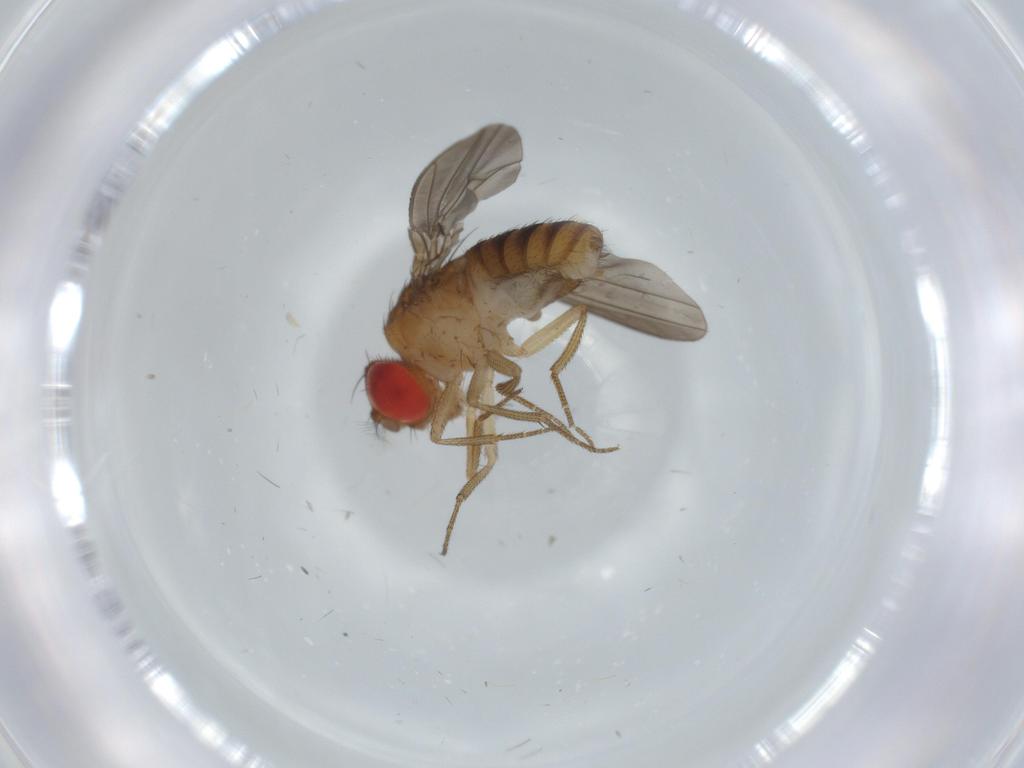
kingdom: Animalia
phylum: Arthropoda
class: Insecta
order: Diptera
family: Drosophilidae
